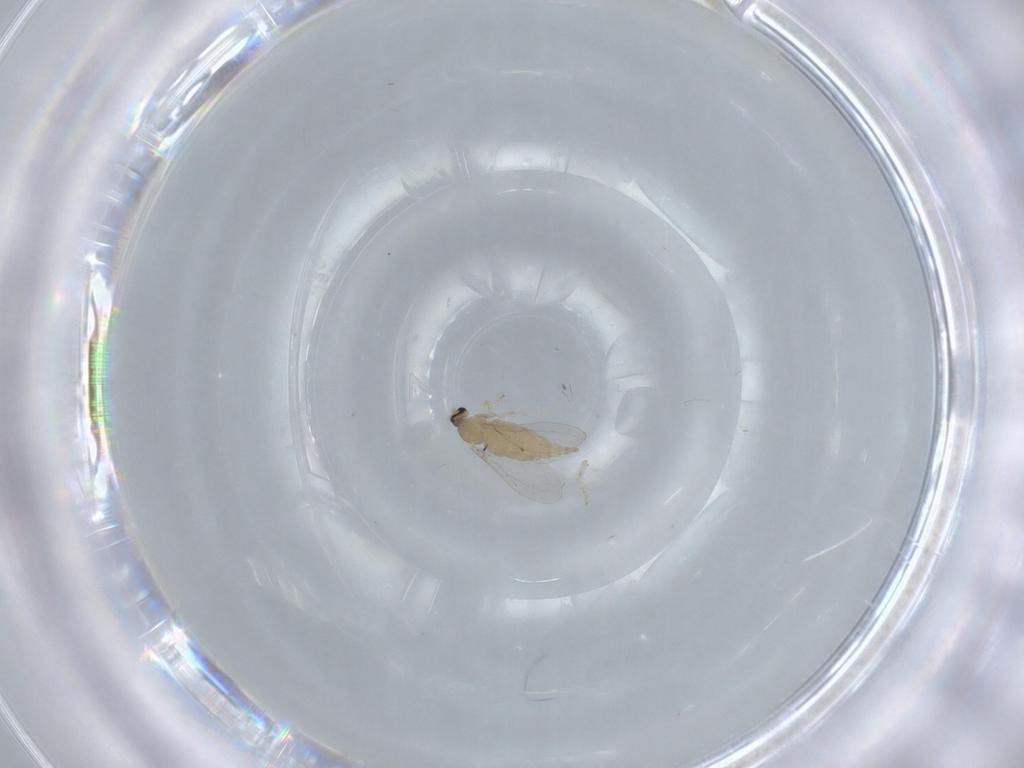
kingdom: Animalia
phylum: Arthropoda
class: Insecta
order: Diptera
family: Cecidomyiidae
